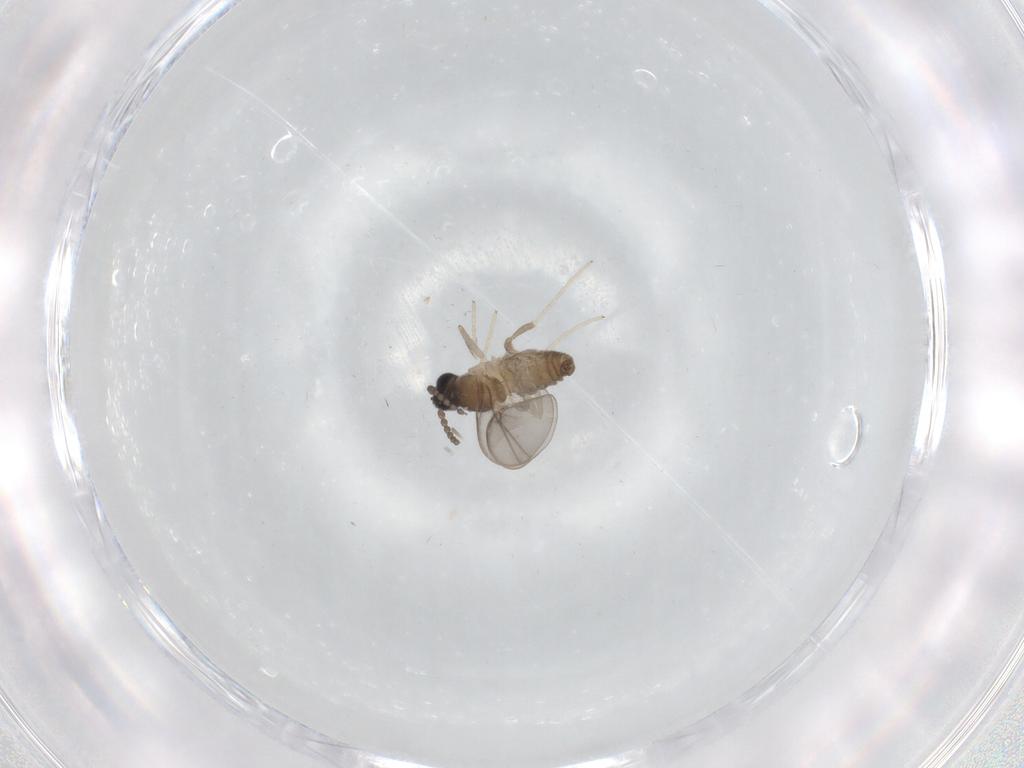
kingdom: Animalia
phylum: Arthropoda
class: Insecta
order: Diptera
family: Cecidomyiidae
